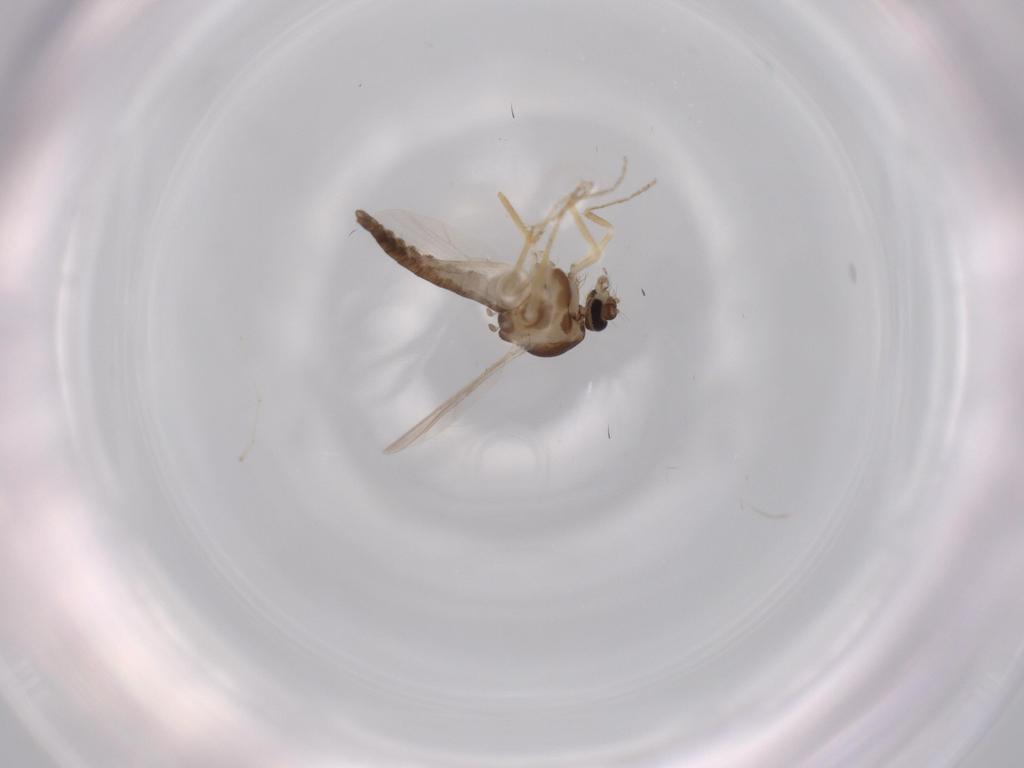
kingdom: Animalia
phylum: Arthropoda
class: Insecta
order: Diptera
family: Ceratopogonidae
